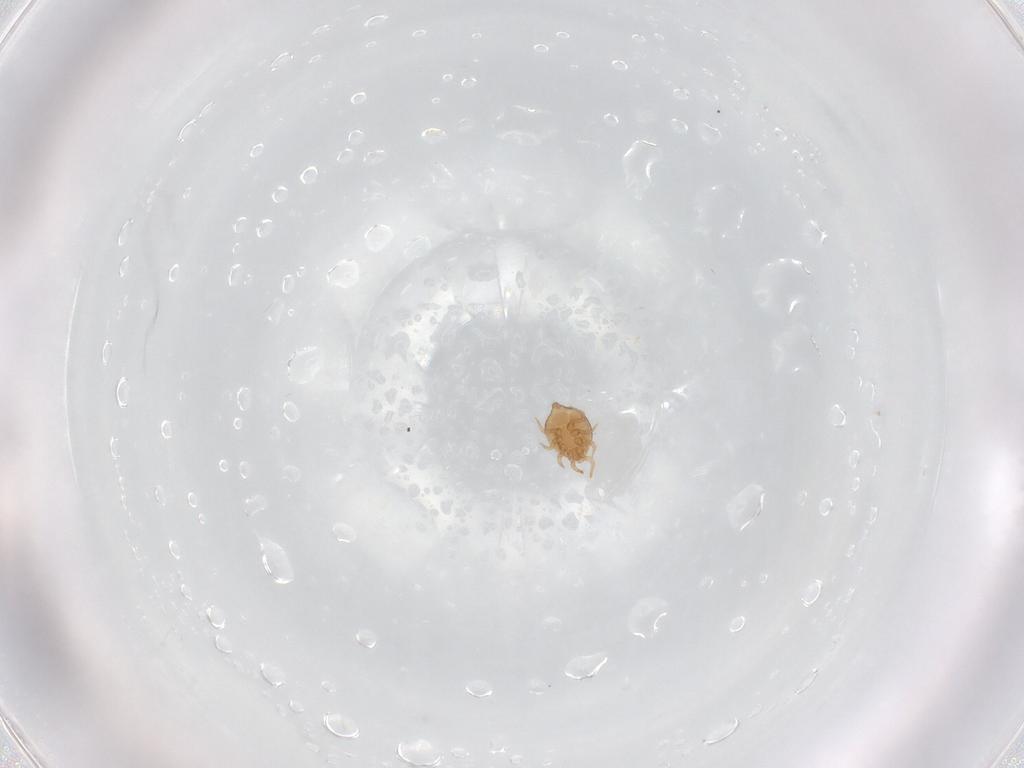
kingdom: Animalia
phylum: Arthropoda
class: Arachnida
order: Mesostigmata
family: Polyaspididae
